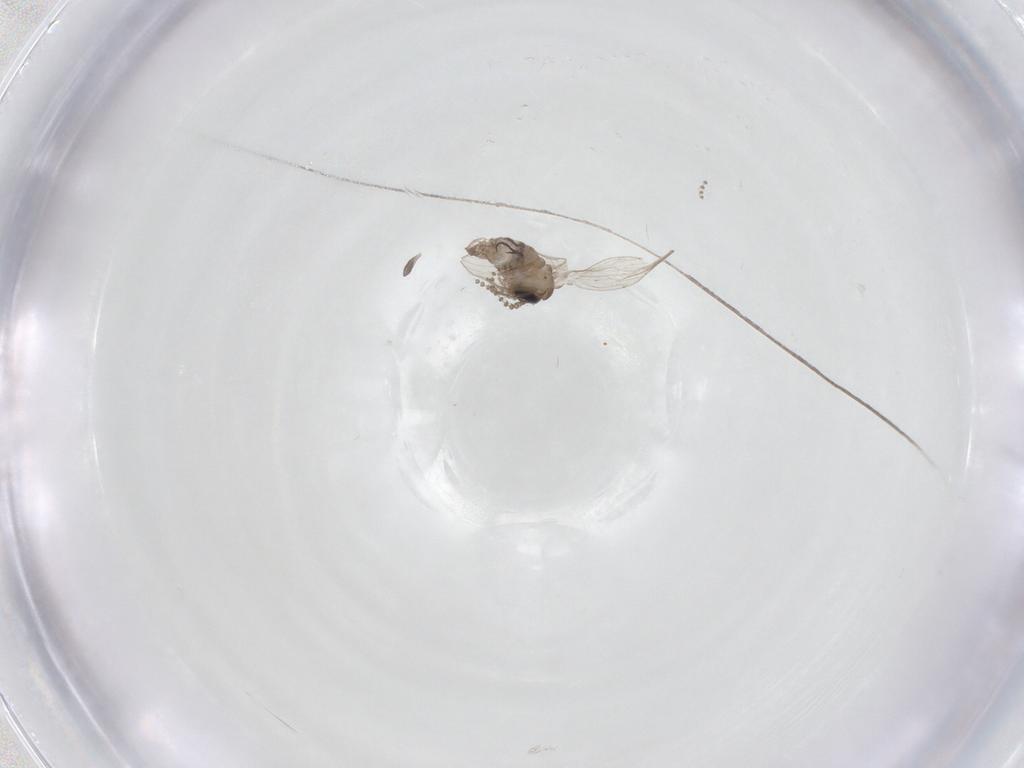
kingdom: Animalia
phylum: Arthropoda
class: Insecta
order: Diptera
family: Psychodidae
